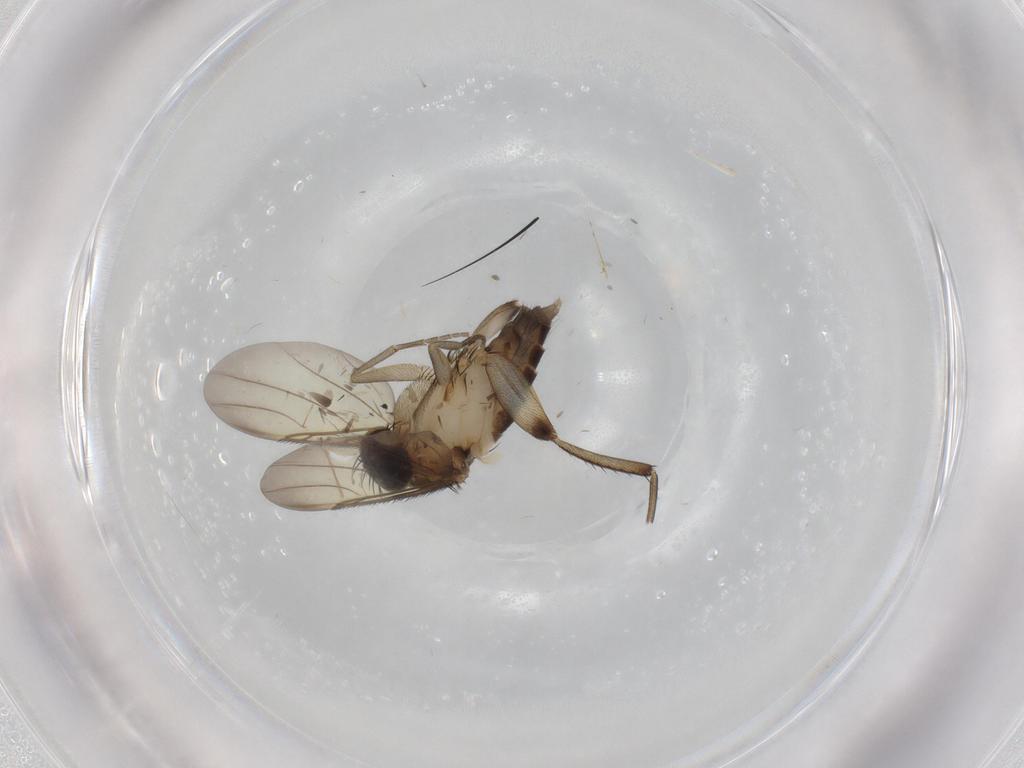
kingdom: Animalia
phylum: Arthropoda
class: Insecta
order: Diptera
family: Phoridae
